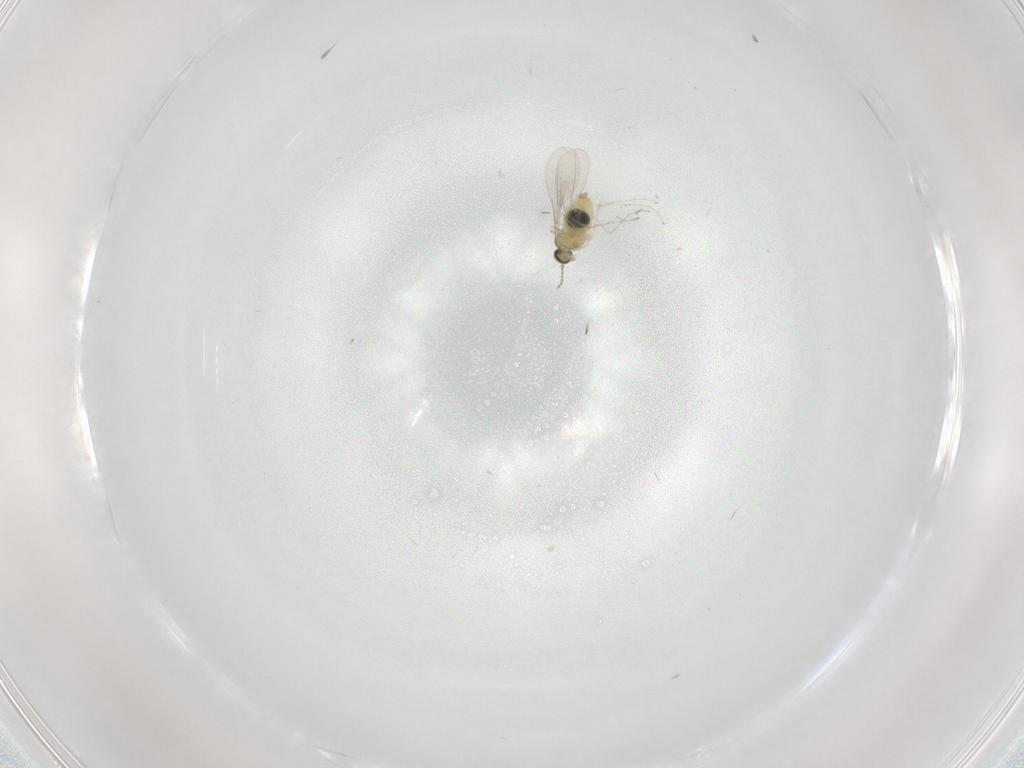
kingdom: Animalia
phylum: Arthropoda
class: Insecta
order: Diptera
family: Cecidomyiidae
